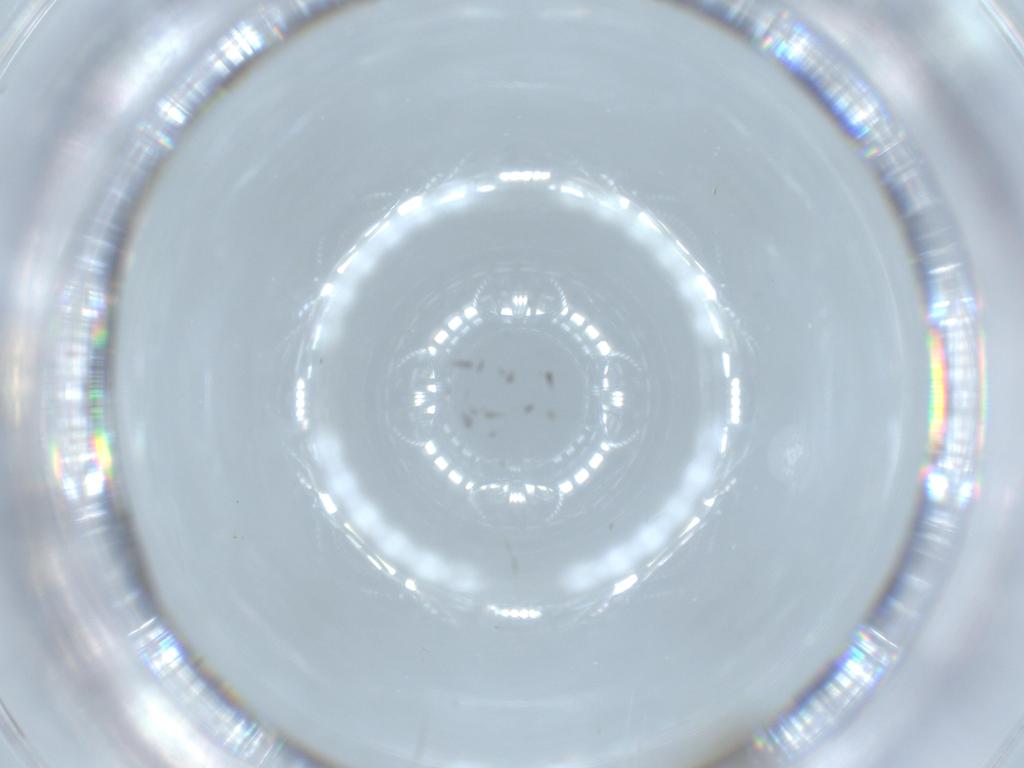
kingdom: Animalia
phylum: Arthropoda
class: Insecta
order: Diptera
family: Ceratopogonidae
